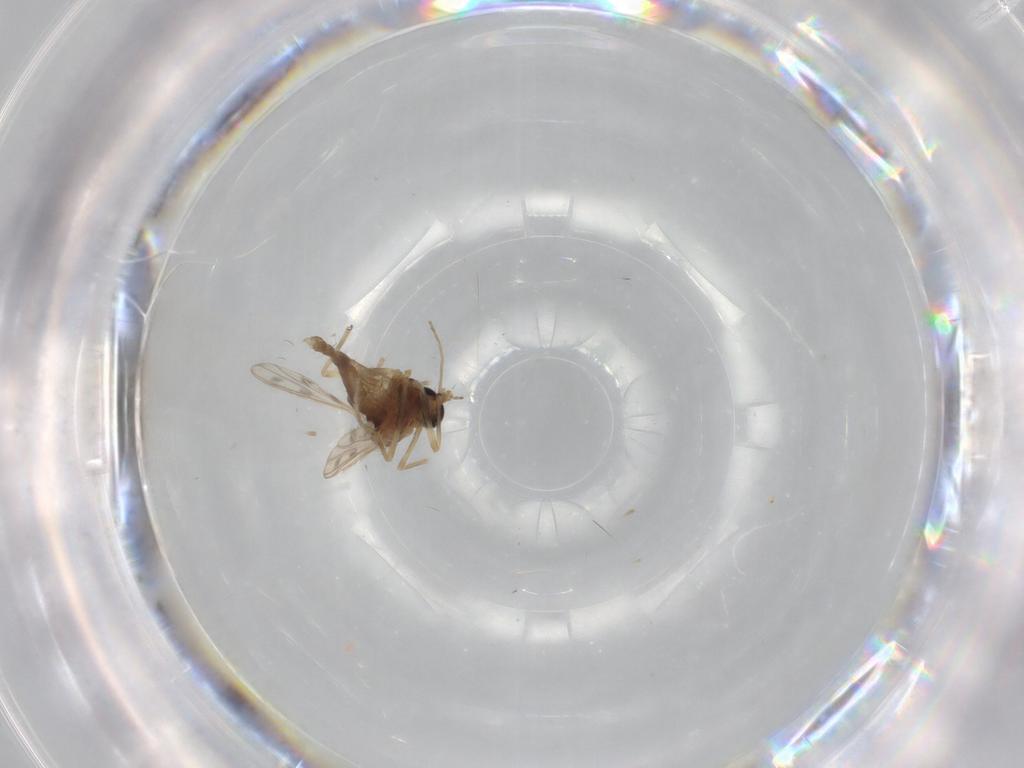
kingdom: Animalia
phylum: Arthropoda
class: Insecta
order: Diptera
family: Chironomidae
